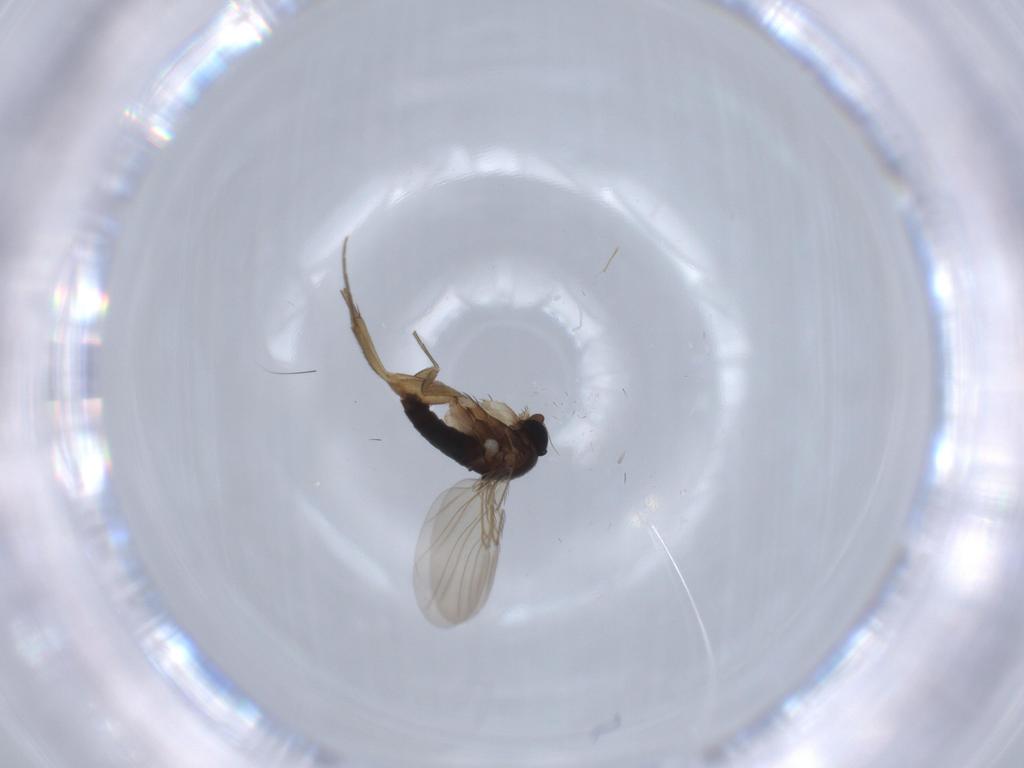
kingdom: Animalia
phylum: Arthropoda
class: Insecta
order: Diptera
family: Phoridae
